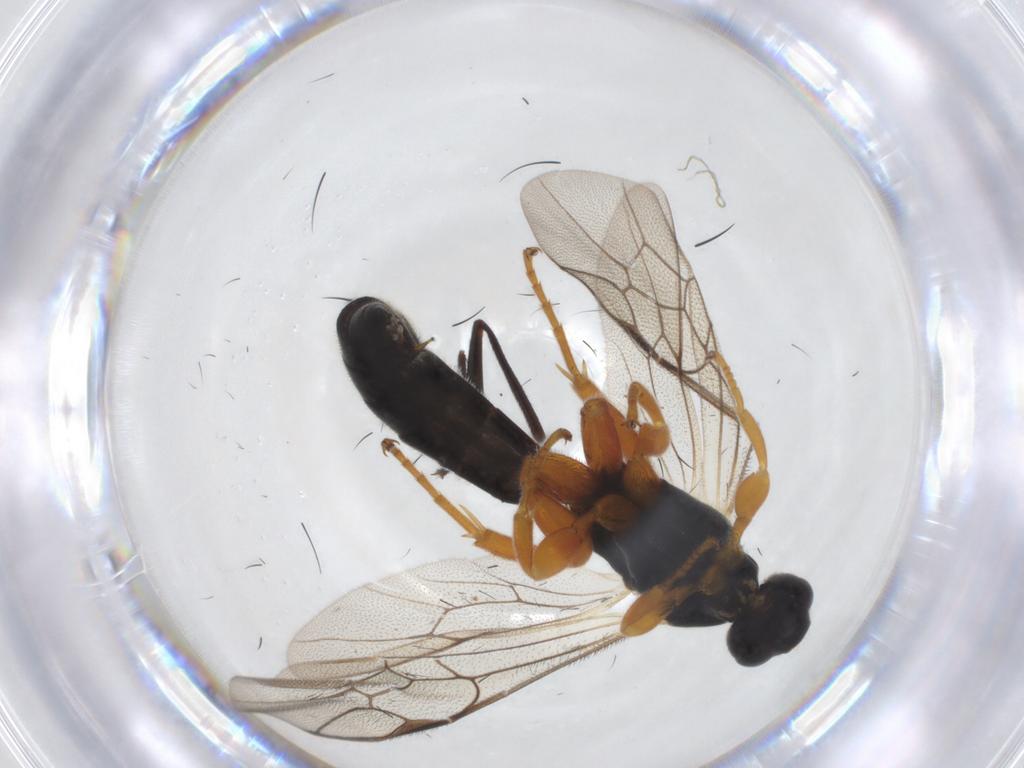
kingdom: Animalia
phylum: Arthropoda
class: Insecta
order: Hymenoptera
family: Ichneumonidae
